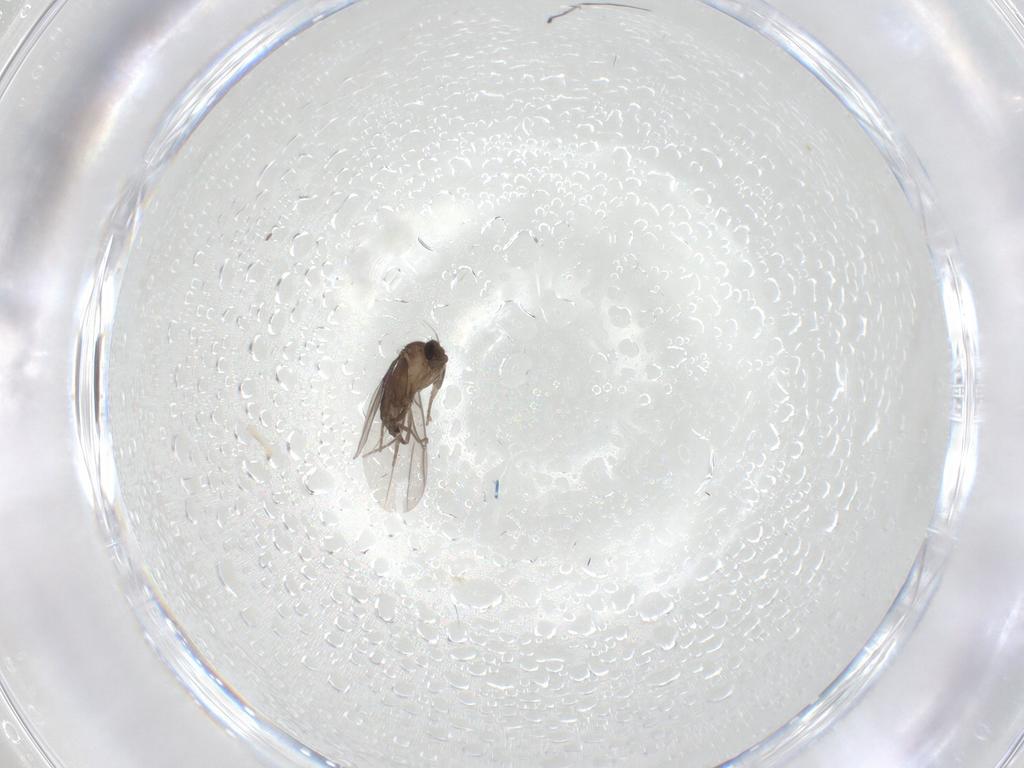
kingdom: Animalia
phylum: Arthropoda
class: Insecta
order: Diptera
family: Phoridae
